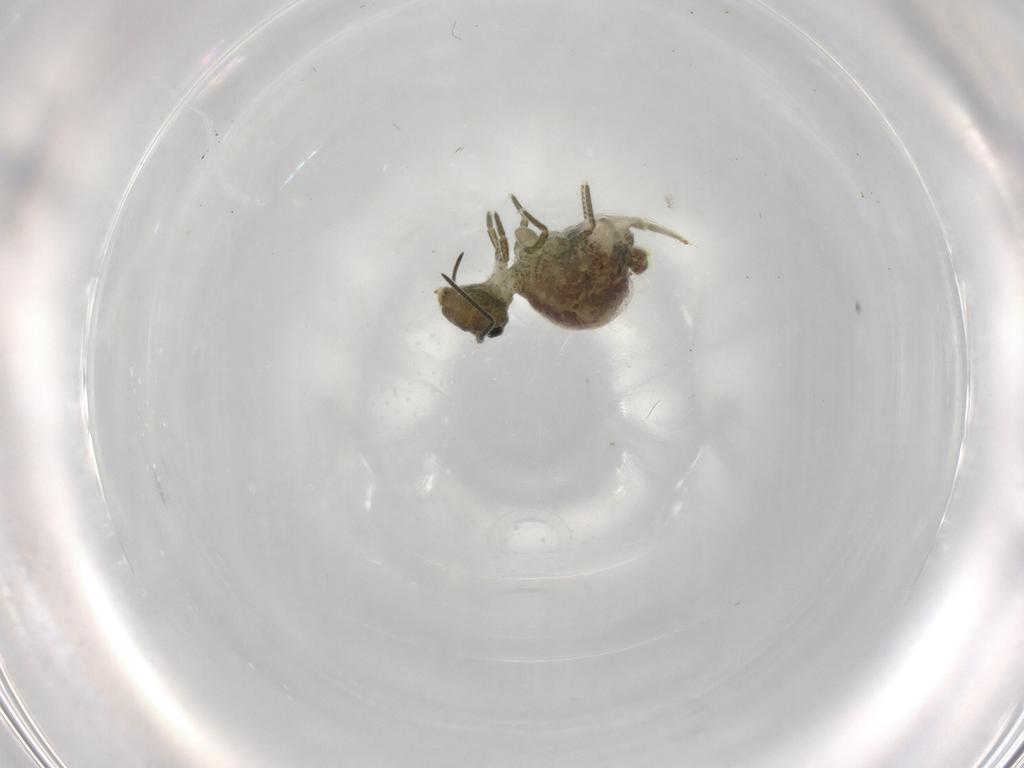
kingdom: Animalia
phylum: Arthropoda
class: Collembola
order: Symphypleona
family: Sminthuridae
